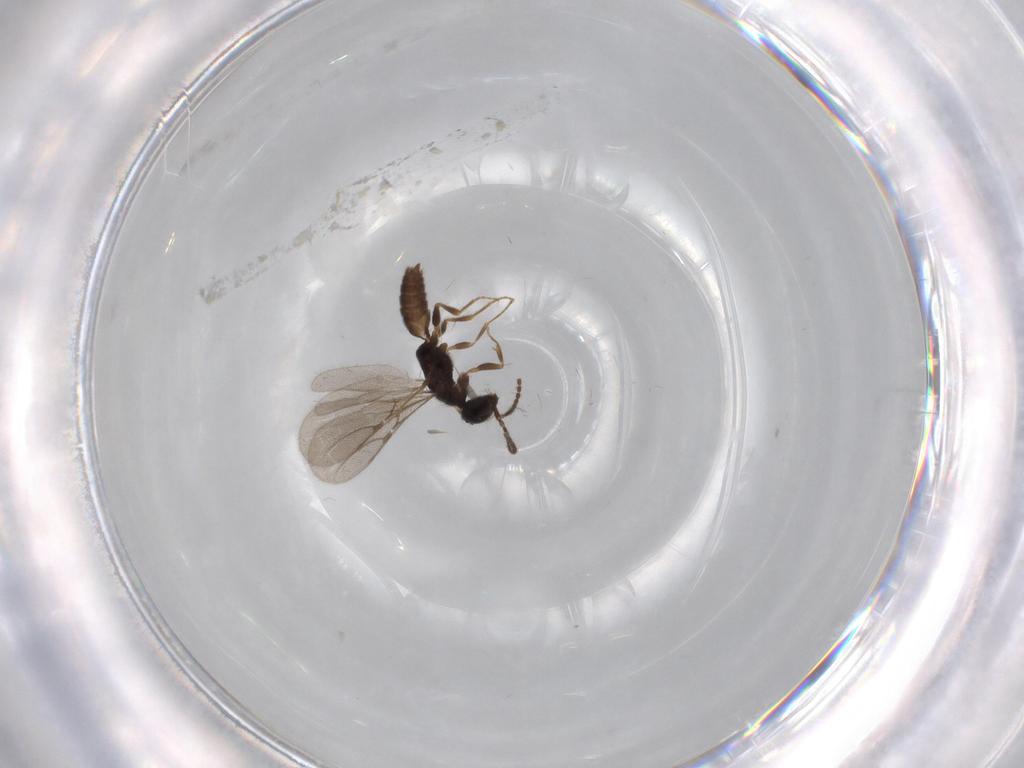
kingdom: Animalia
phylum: Arthropoda
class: Insecta
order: Hymenoptera
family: Bethylidae
